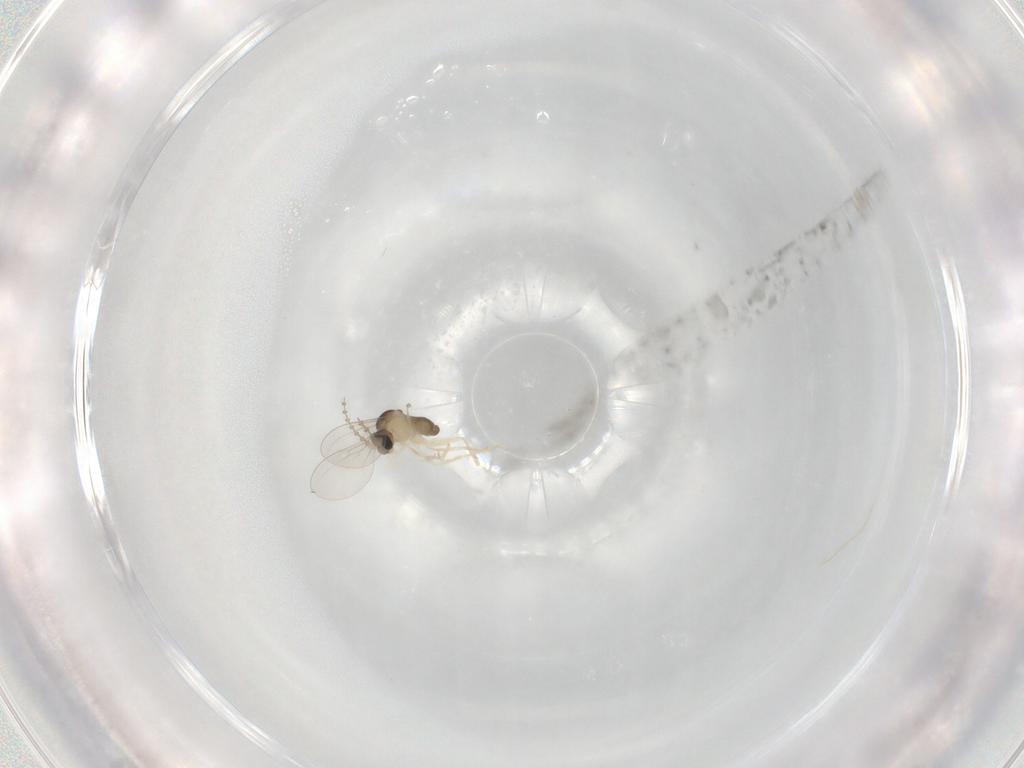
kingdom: Animalia
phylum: Arthropoda
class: Insecta
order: Diptera
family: Cecidomyiidae
